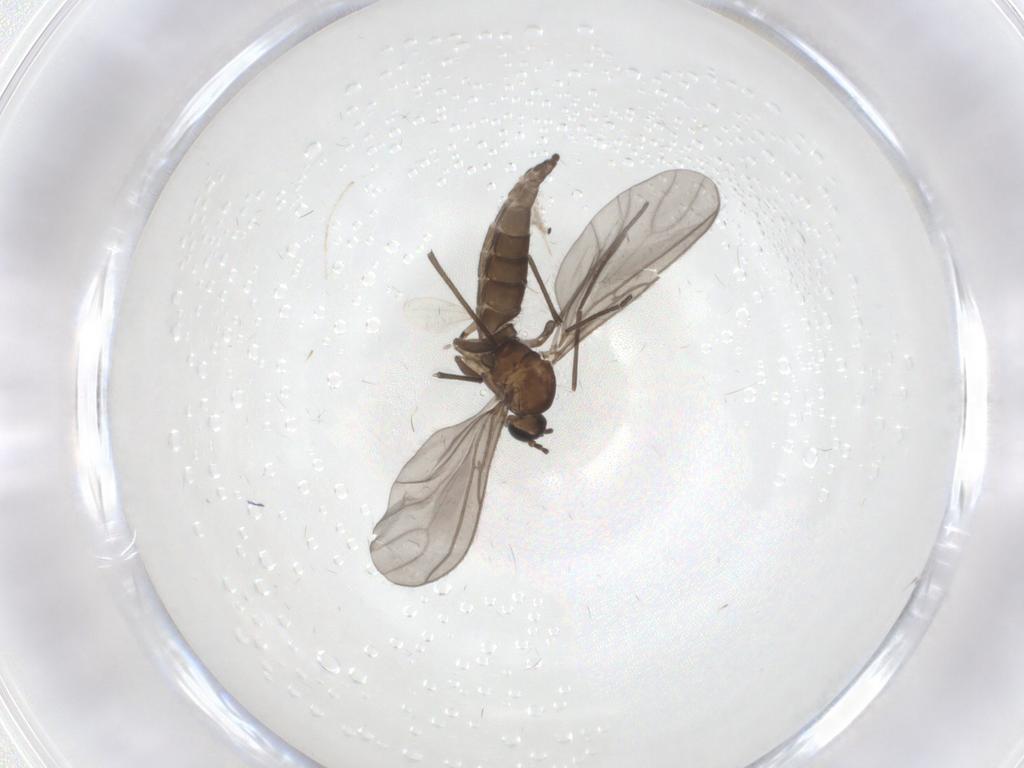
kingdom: Animalia
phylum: Arthropoda
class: Insecta
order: Diptera
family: Sciaridae
